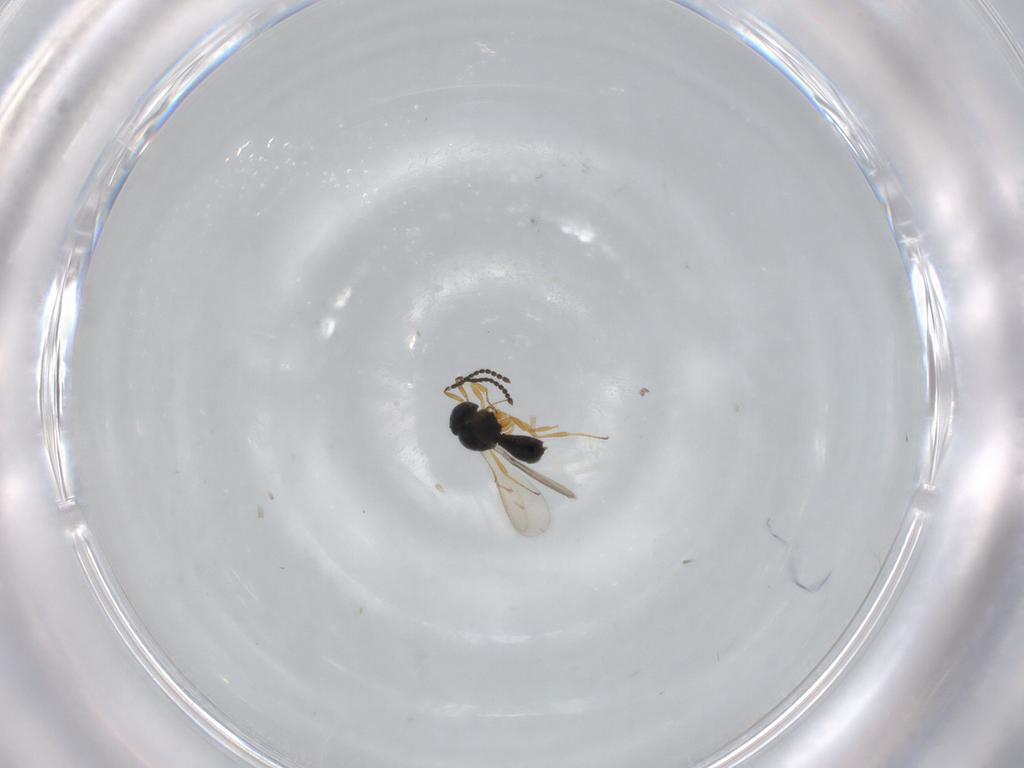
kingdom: Animalia
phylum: Arthropoda
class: Insecta
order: Hymenoptera
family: Scelionidae
